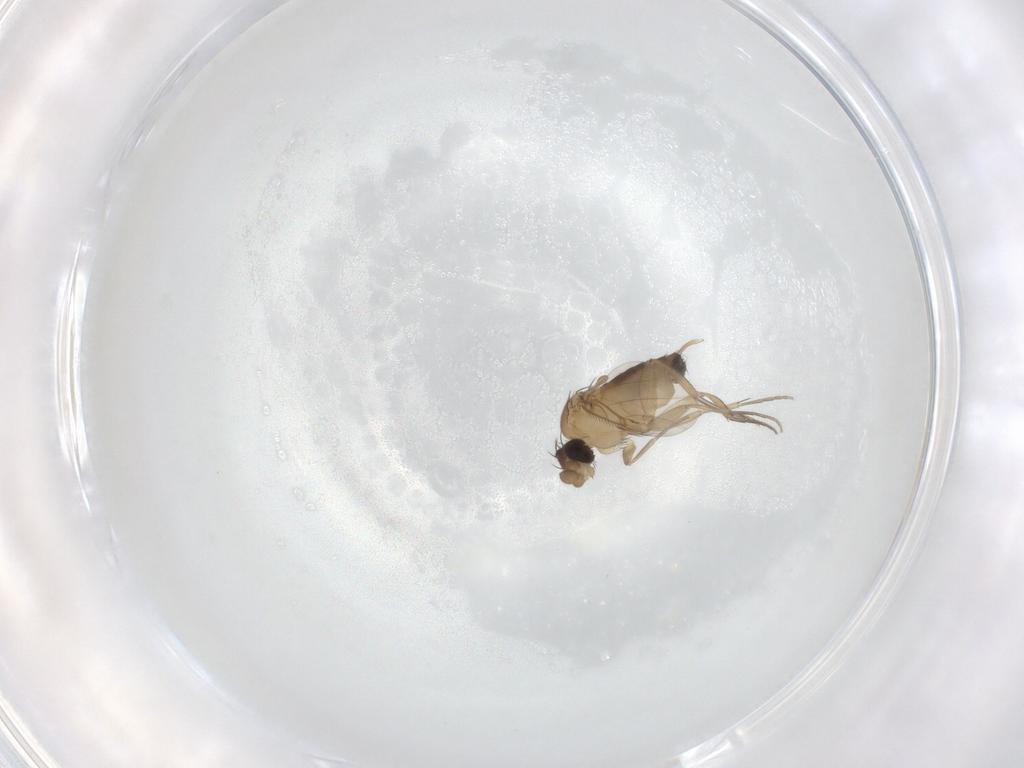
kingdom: Animalia
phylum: Arthropoda
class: Insecta
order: Diptera
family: Phoridae
